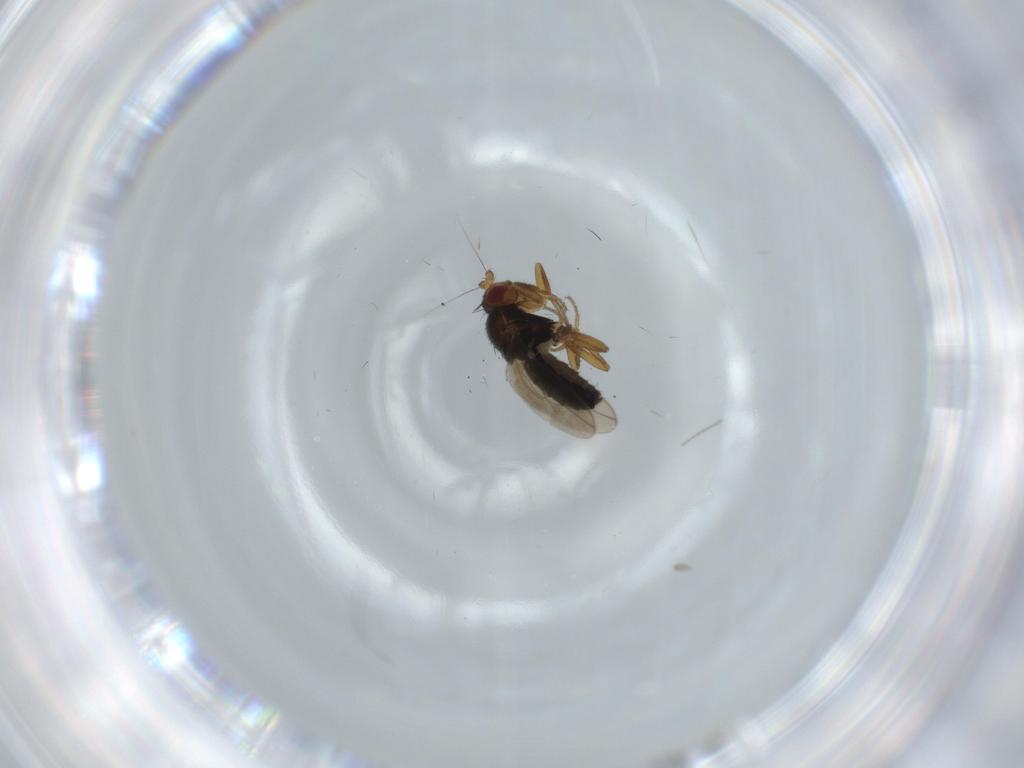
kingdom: Animalia
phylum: Arthropoda
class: Insecta
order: Diptera
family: Sphaeroceridae
